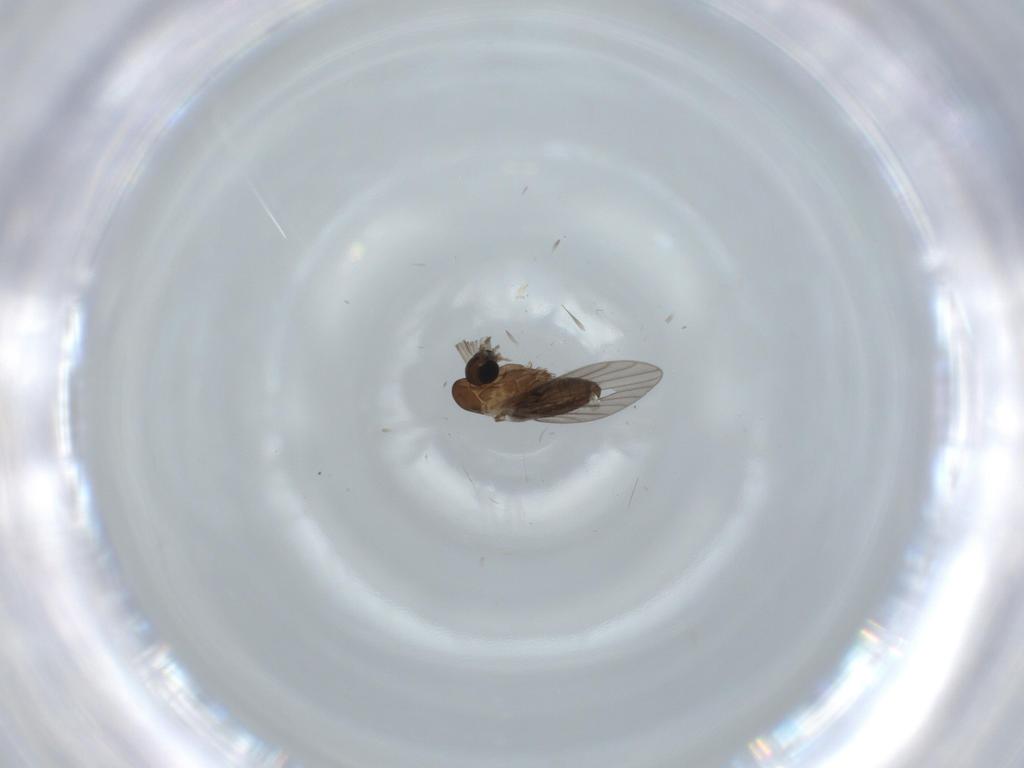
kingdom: Animalia
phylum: Arthropoda
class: Insecta
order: Diptera
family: Psychodidae
